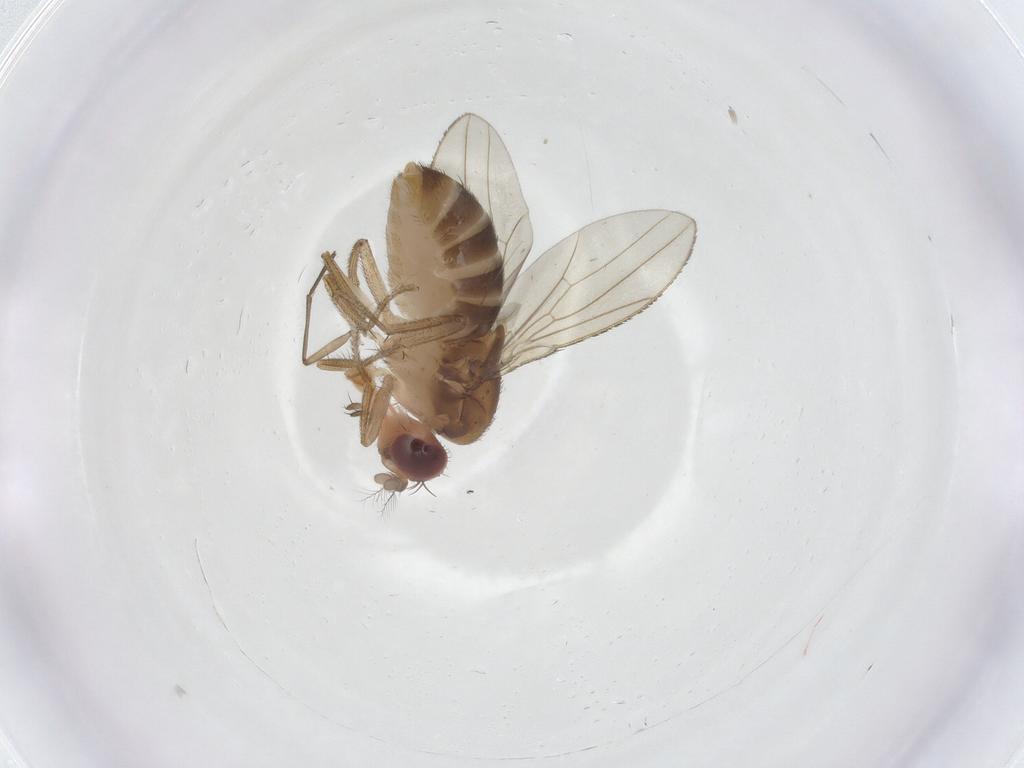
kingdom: Animalia
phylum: Arthropoda
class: Insecta
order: Diptera
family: Drosophilidae
